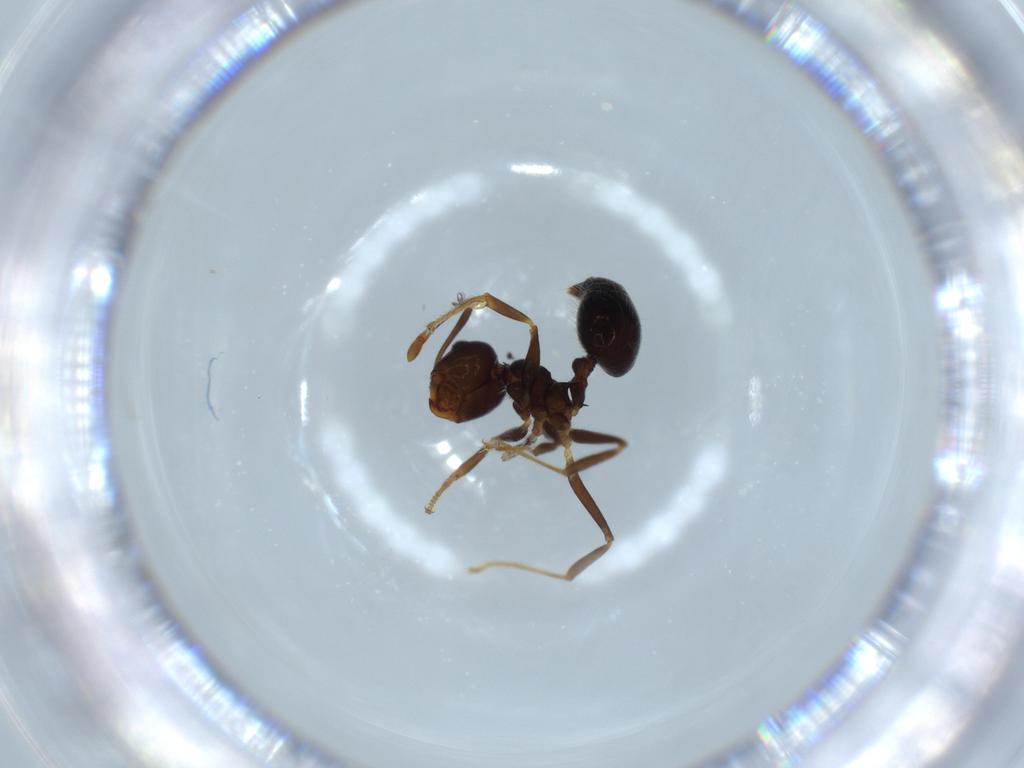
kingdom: Animalia
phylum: Arthropoda
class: Insecta
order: Hymenoptera
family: Formicidae
